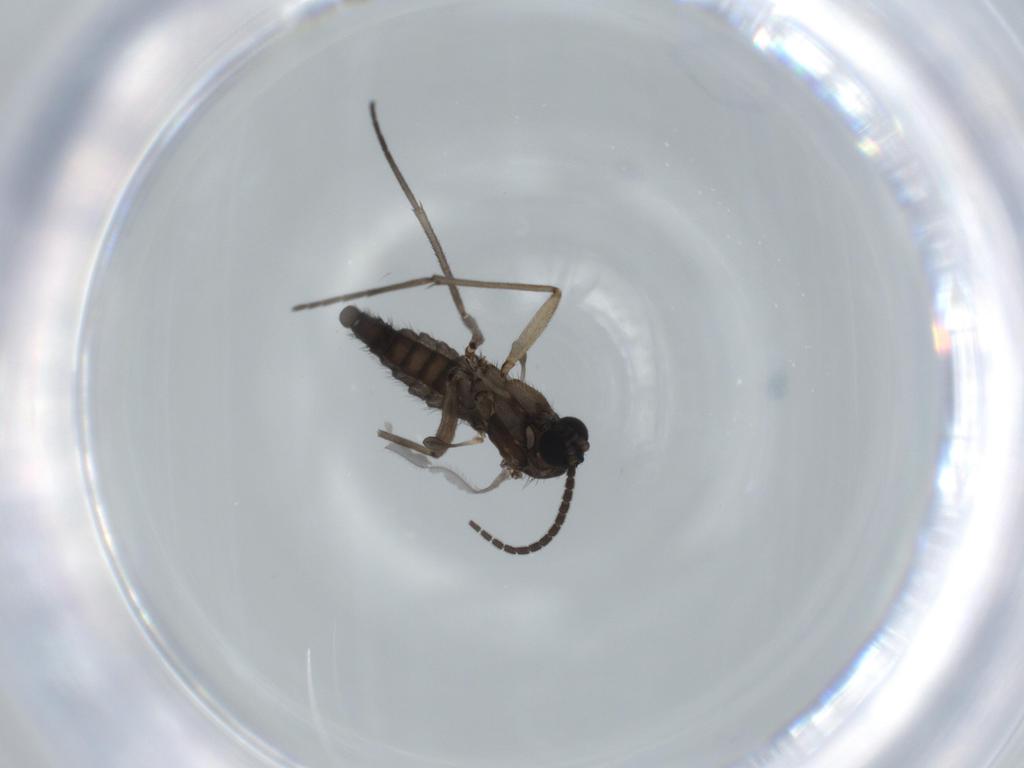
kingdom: Animalia
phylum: Arthropoda
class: Insecta
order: Diptera
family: Sciaridae
